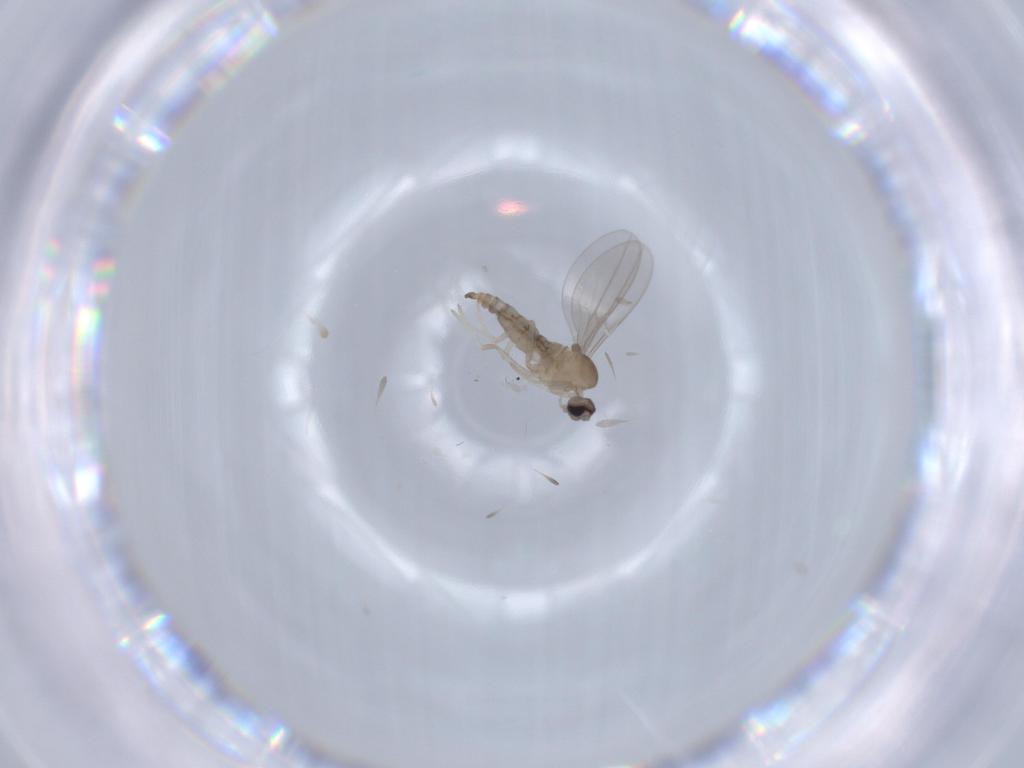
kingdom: Animalia
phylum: Arthropoda
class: Insecta
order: Diptera
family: Cecidomyiidae
